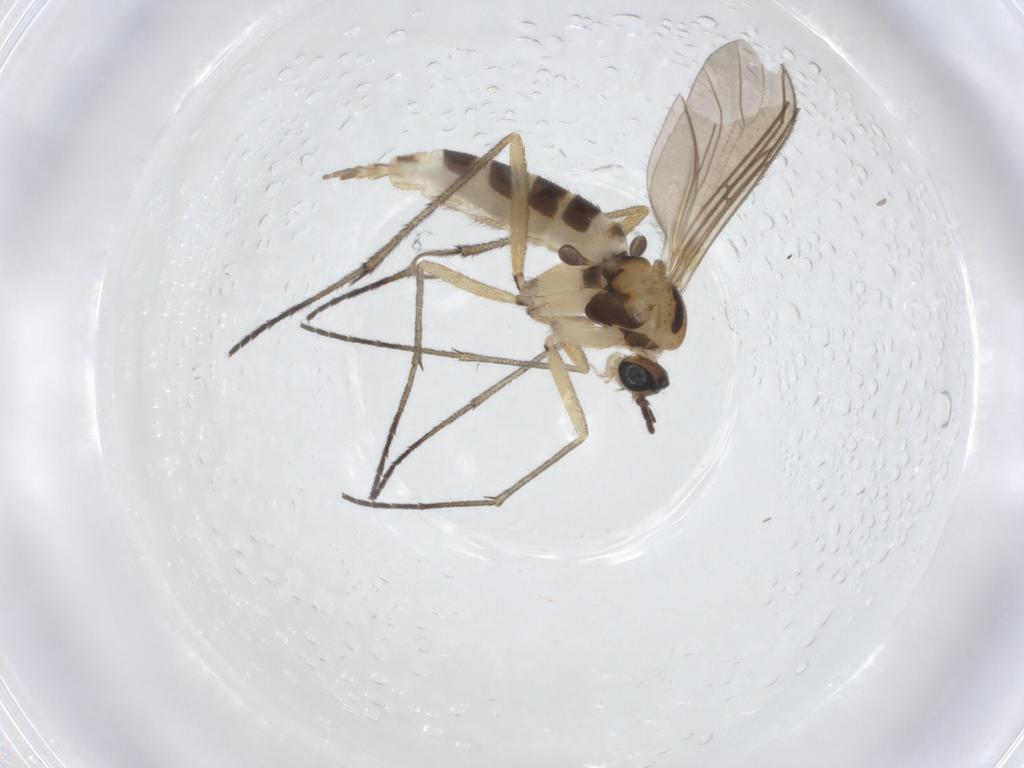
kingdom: Animalia
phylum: Arthropoda
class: Insecta
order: Diptera
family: Sciaridae
